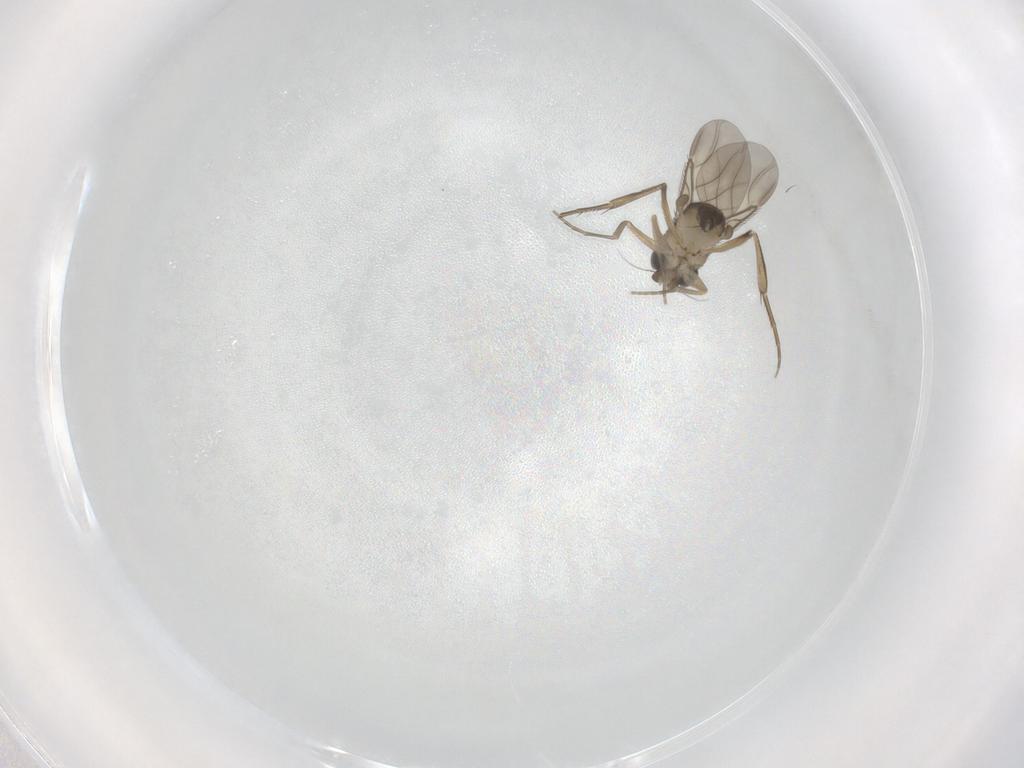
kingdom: Animalia
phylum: Arthropoda
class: Insecta
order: Diptera
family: Phoridae
